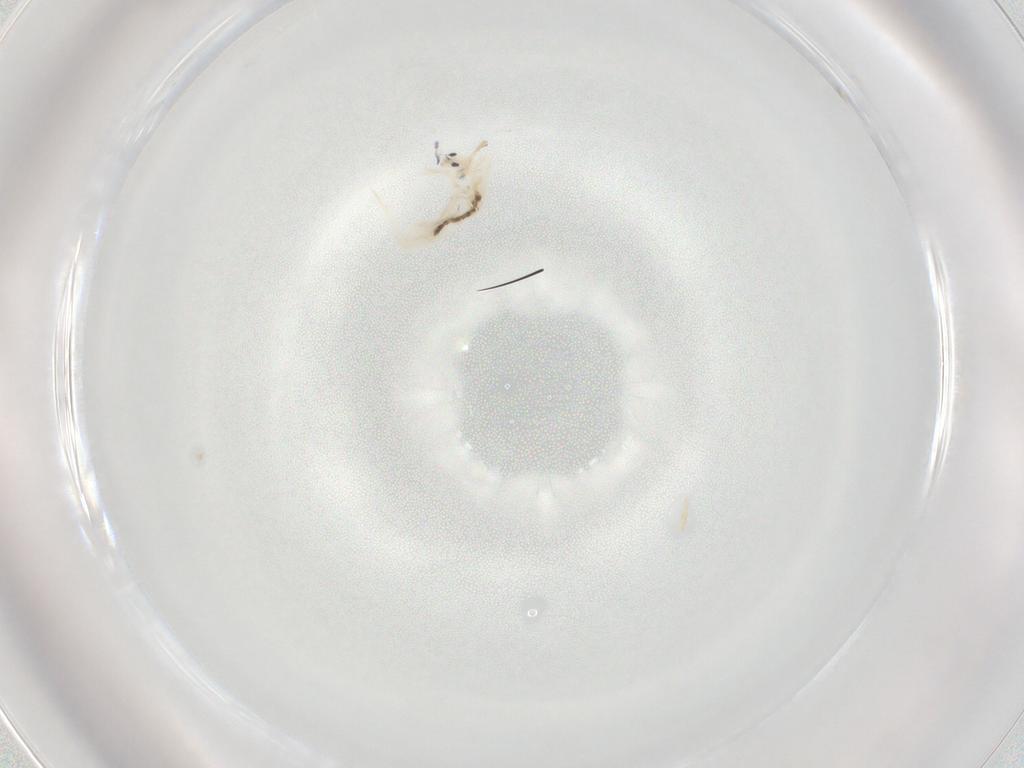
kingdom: Animalia
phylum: Arthropoda
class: Collembola
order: Entomobryomorpha
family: Entomobryidae
